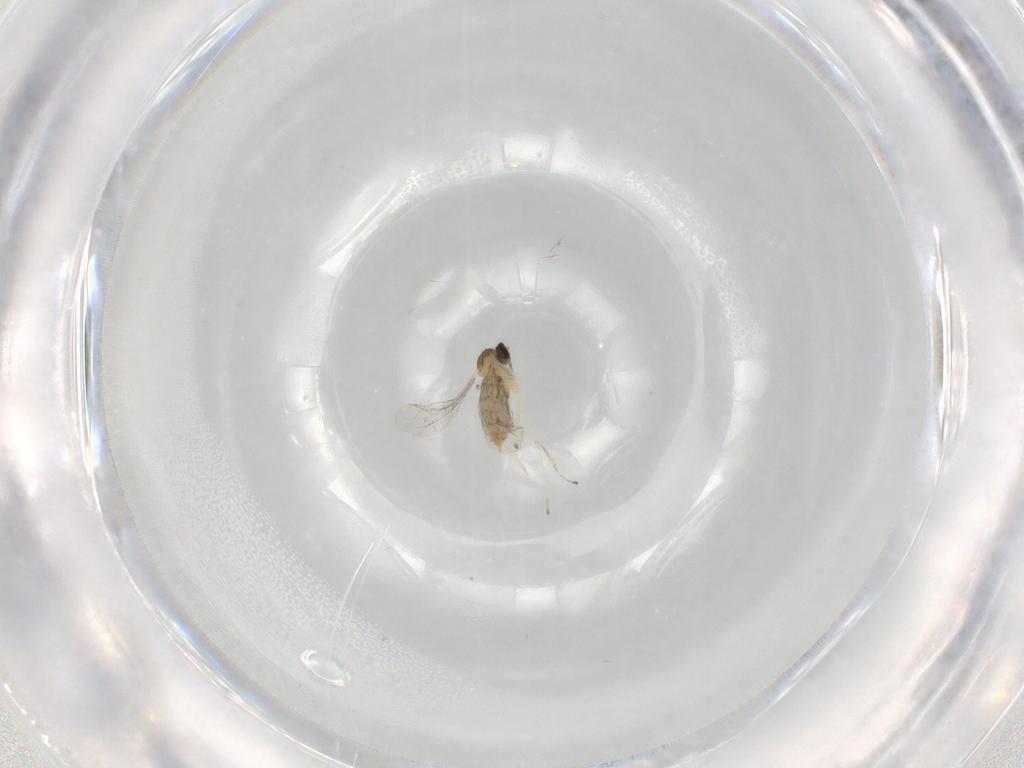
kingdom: Animalia
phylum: Arthropoda
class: Insecta
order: Diptera
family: Cecidomyiidae
